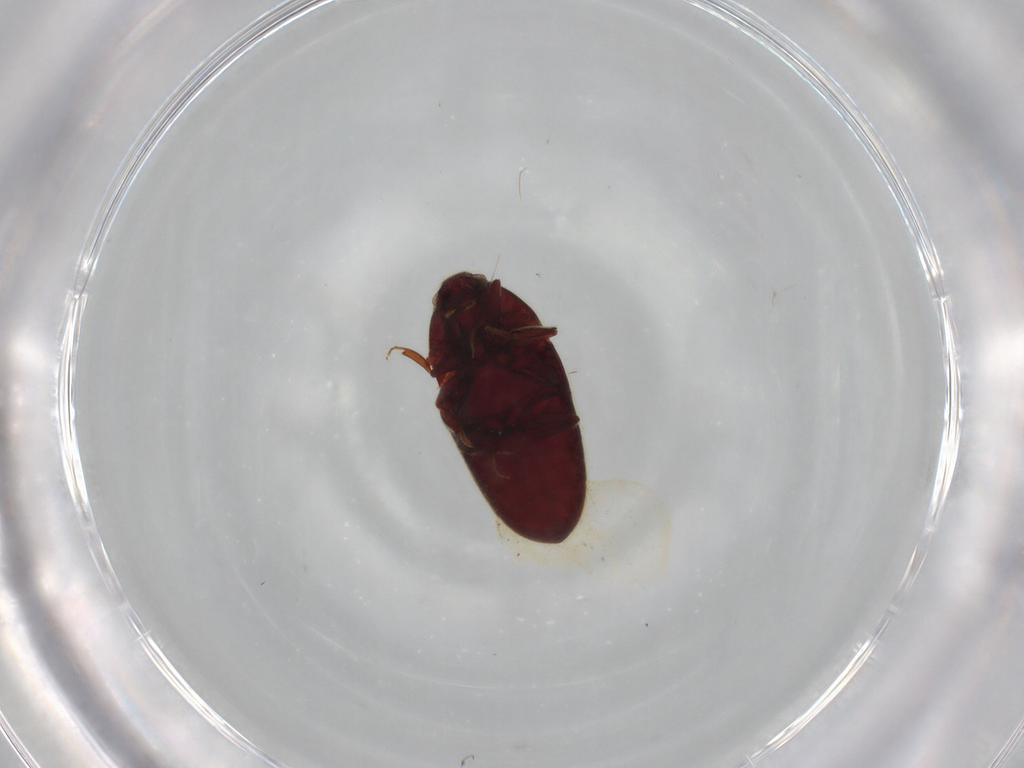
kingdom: Animalia
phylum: Arthropoda
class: Insecta
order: Coleoptera
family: Throscidae
